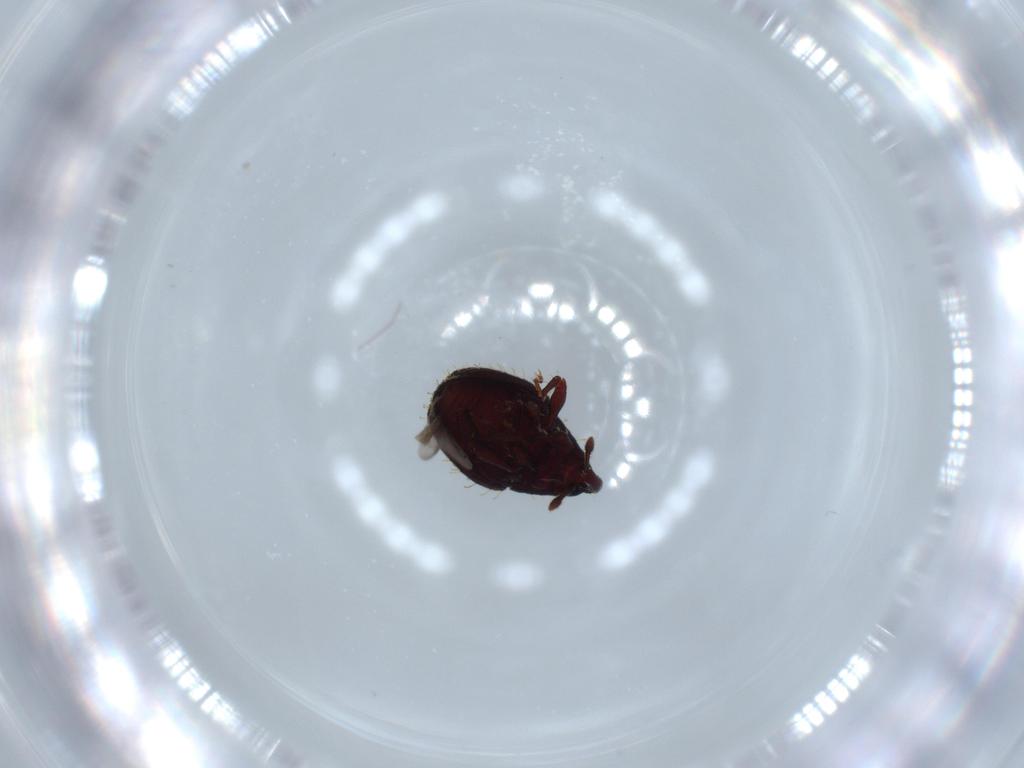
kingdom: Animalia
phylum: Arthropoda
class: Insecta
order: Coleoptera
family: Curculionidae
